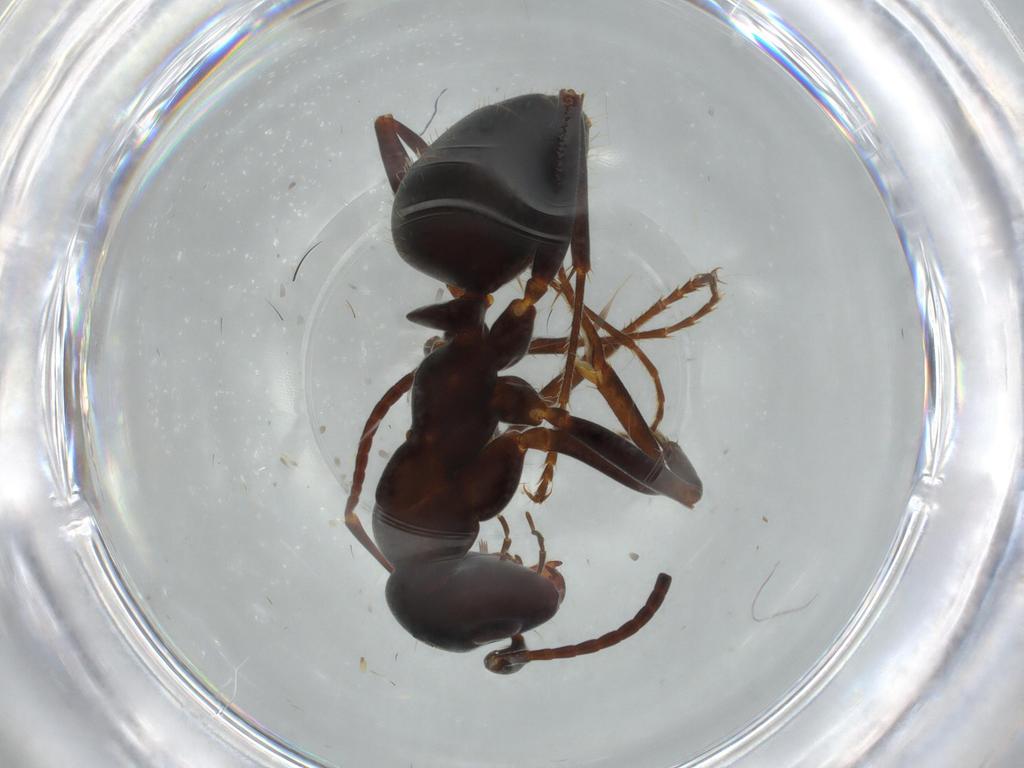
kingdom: Animalia
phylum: Arthropoda
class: Insecta
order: Hymenoptera
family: Formicidae
